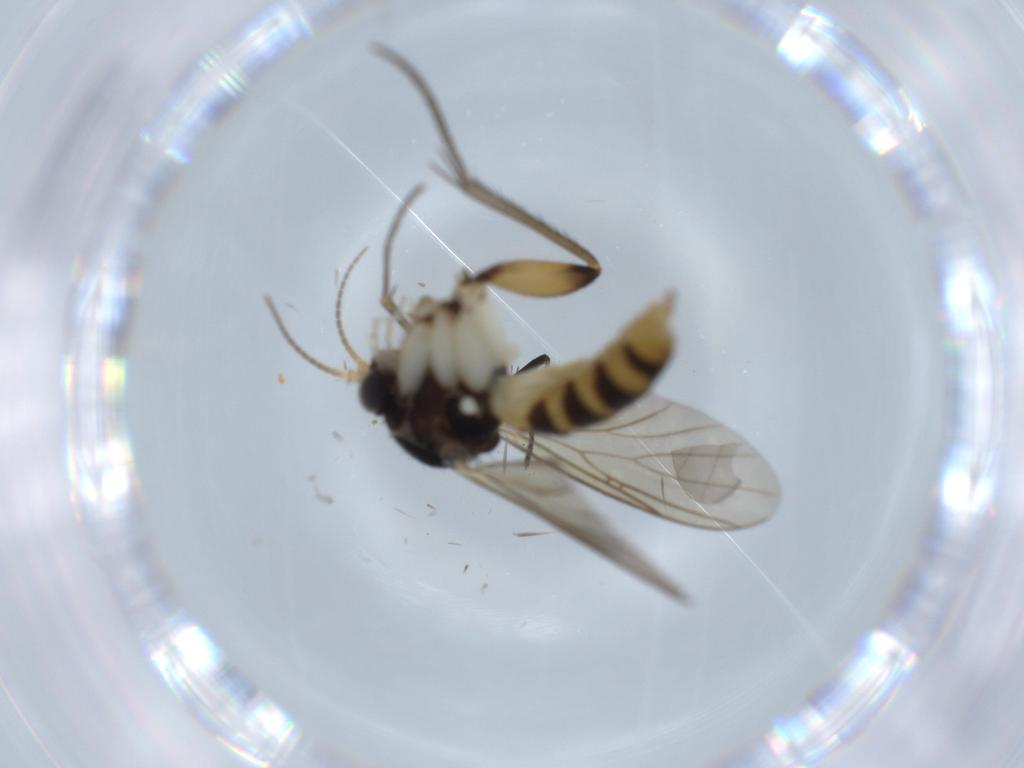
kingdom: Animalia
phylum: Arthropoda
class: Insecta
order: Diptera
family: Mycetophilidae
